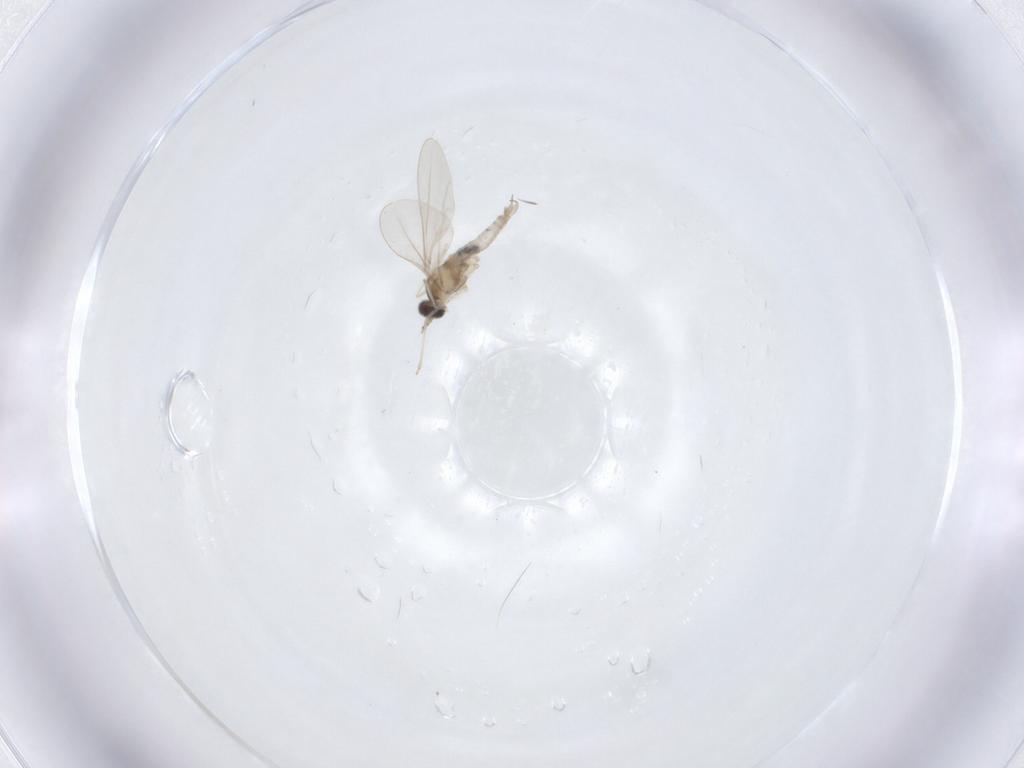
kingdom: Animalia
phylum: Arthropoda
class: Insecta
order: Diptera
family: Cecidomyiidae
